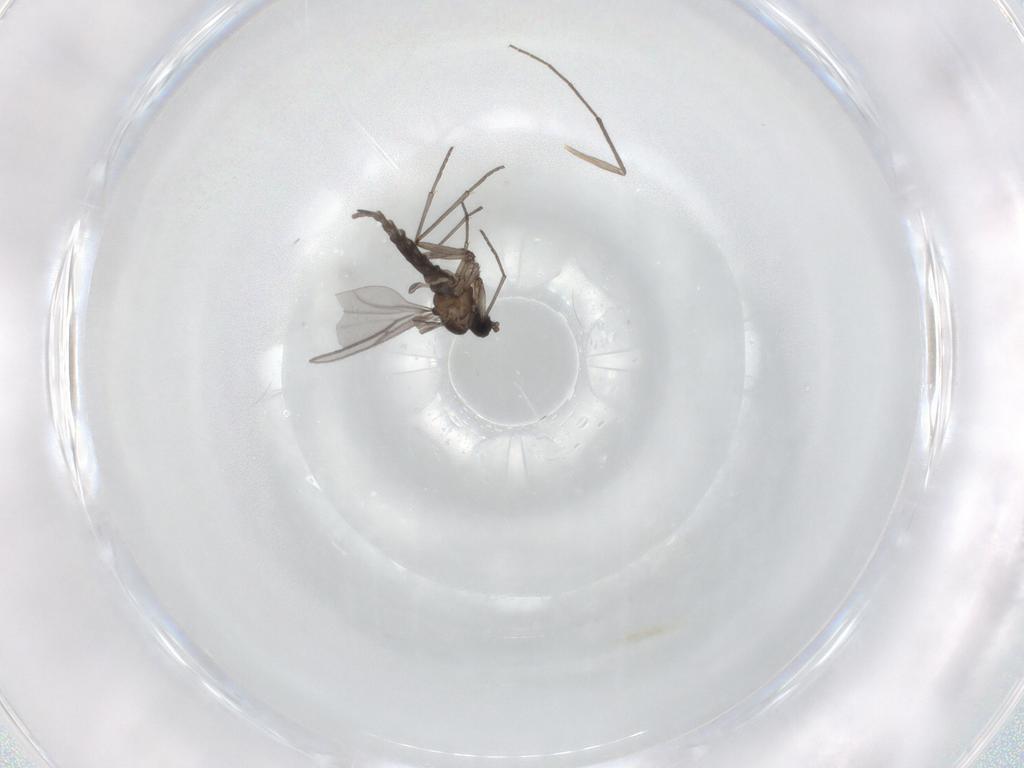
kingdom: Animalia
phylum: Arthropoda
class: Insecta
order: Diptera
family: Chironomidae
